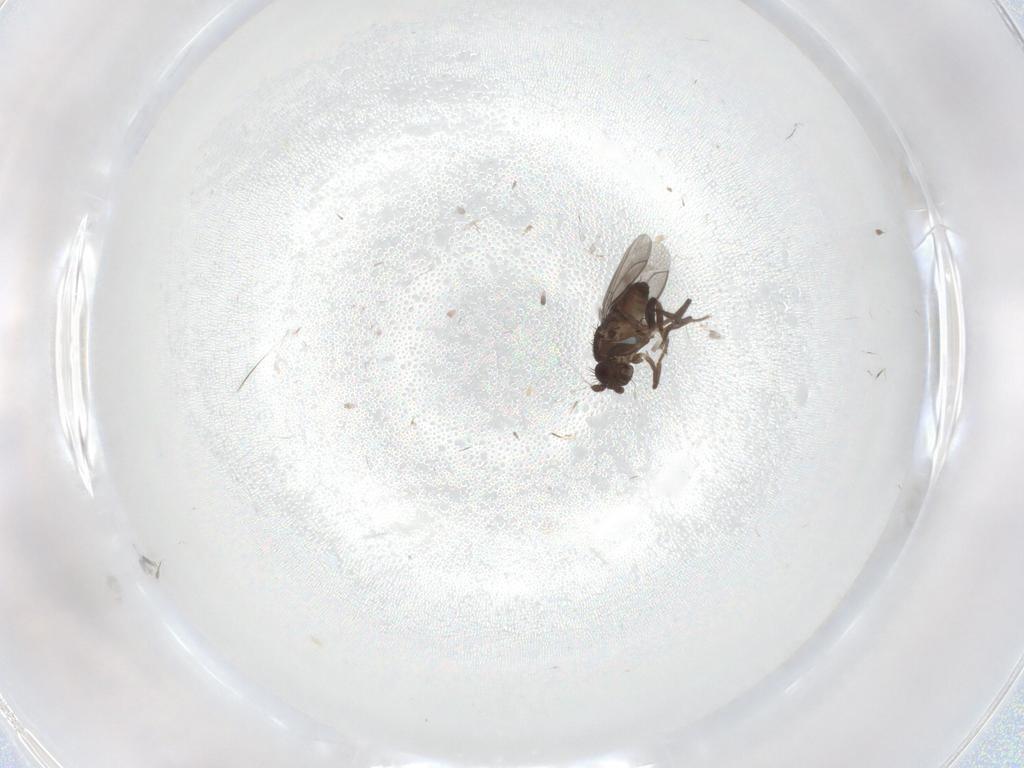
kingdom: Animalia
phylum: Arthropoda
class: Insecta
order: Diptera
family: Sphaeroceridae
